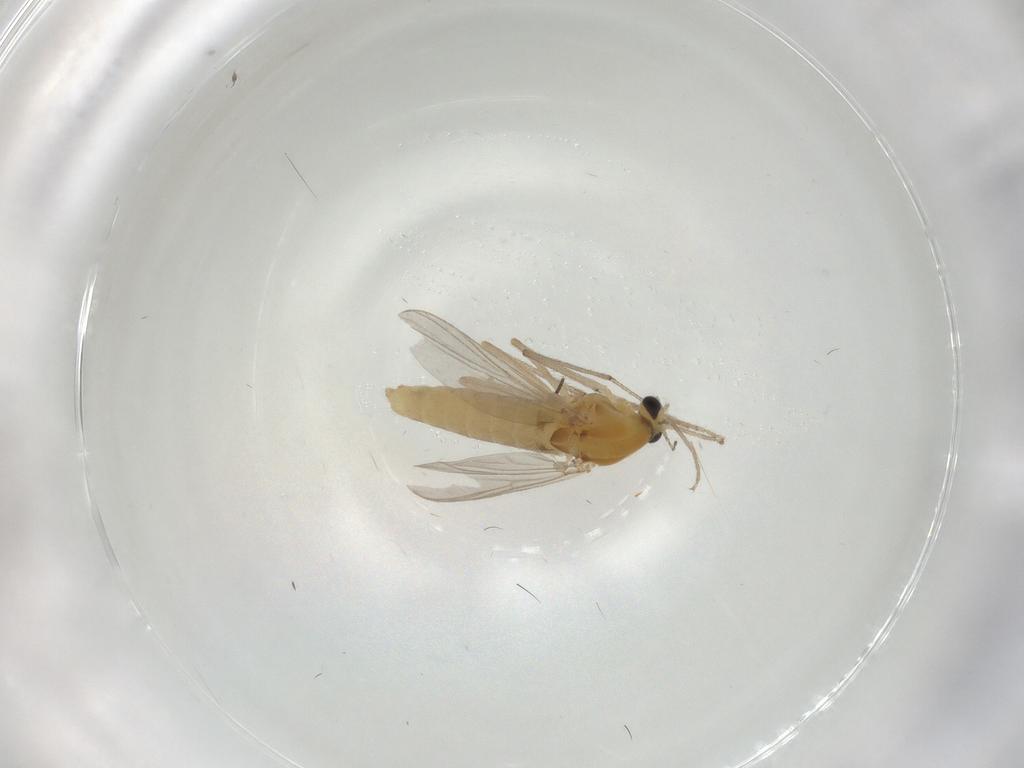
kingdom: Animalia
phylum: Arthropoda
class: Insecta
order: Diptera
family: Chironomidae
